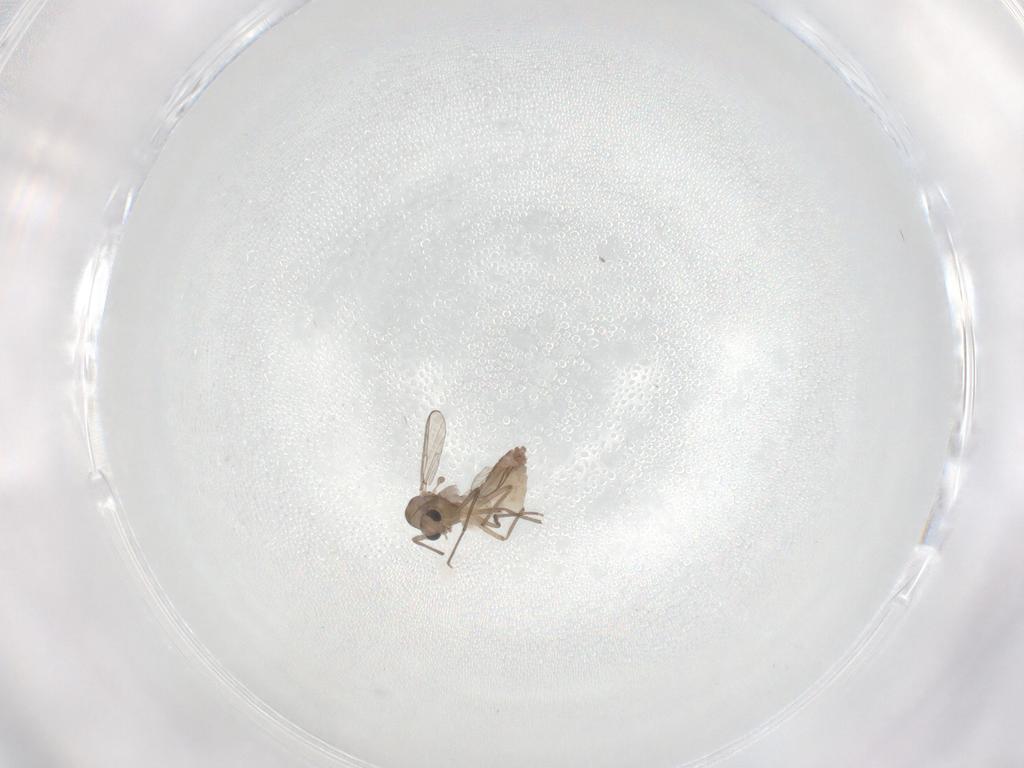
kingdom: Animalia
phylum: Arthropoda
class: Insecta
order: Diptera
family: Chironomidae
